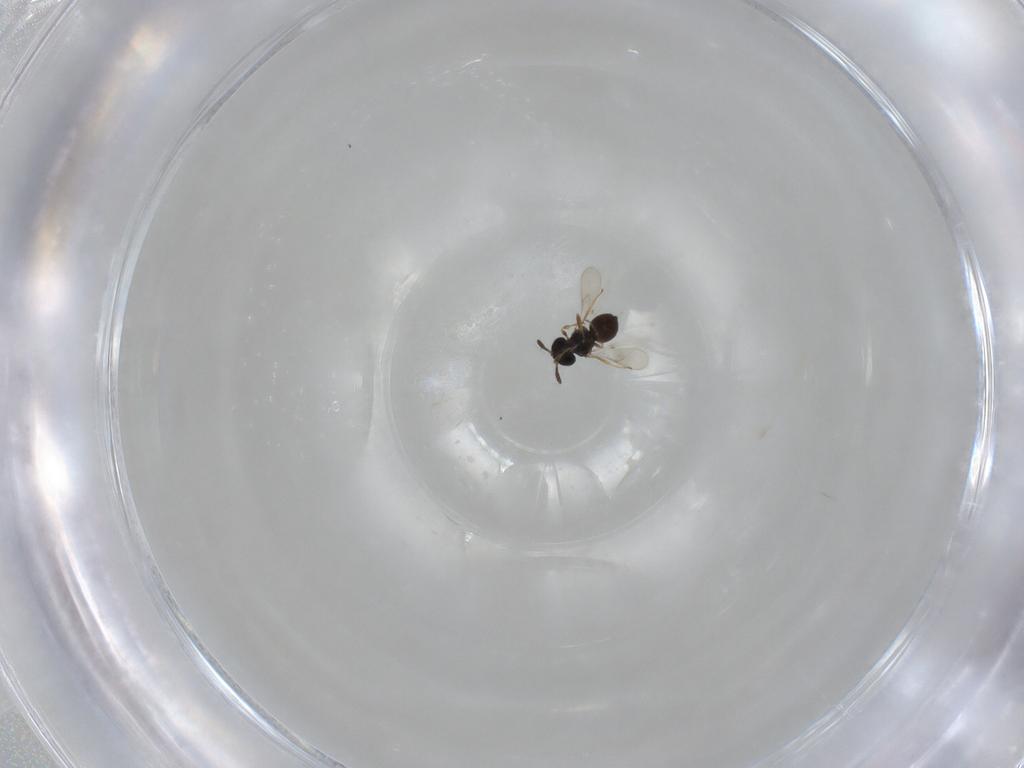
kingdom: Animalia
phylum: Arthropoda
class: Insecta
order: Hymenoptera
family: Scelionidae
